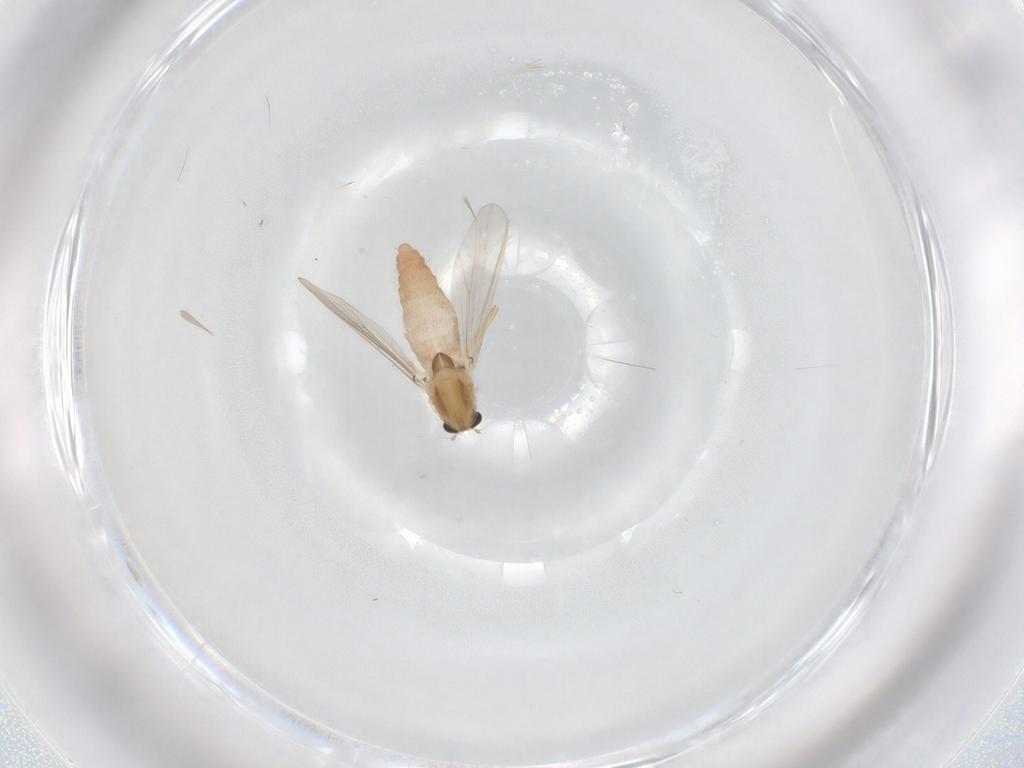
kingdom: Animalia
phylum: Arthropoda
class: Insecta
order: Diptera
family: Chironomidae
